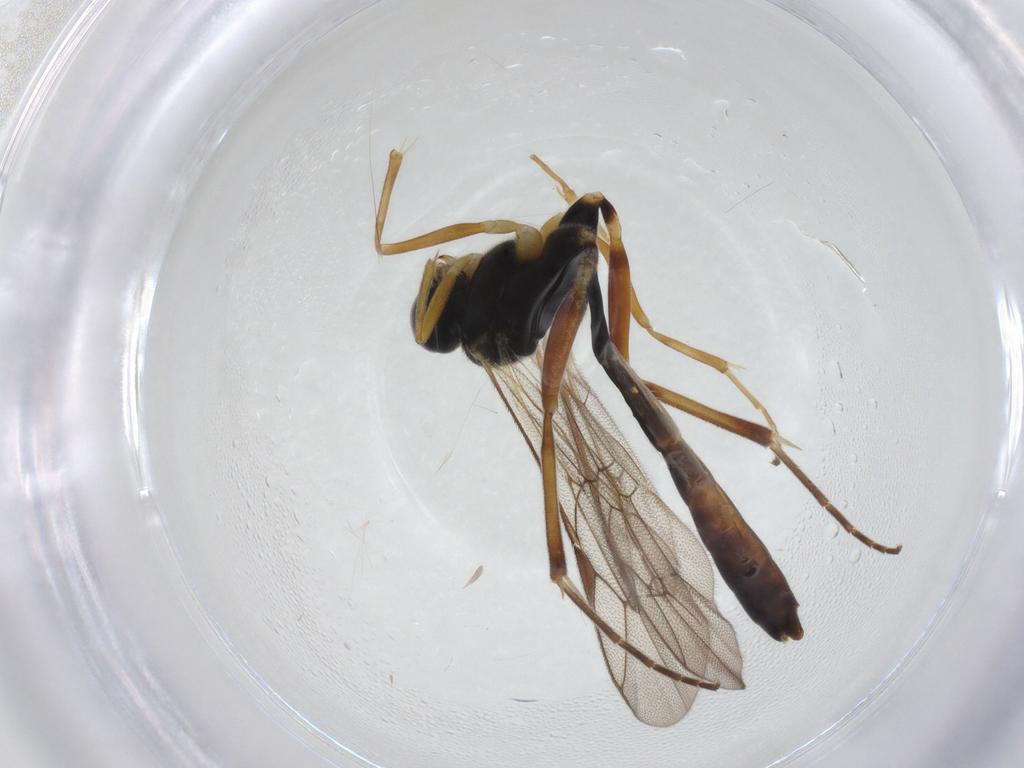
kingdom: Animalia
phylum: Arthropoda
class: Insecta
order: Hymenoptera
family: Ichneumonidae
